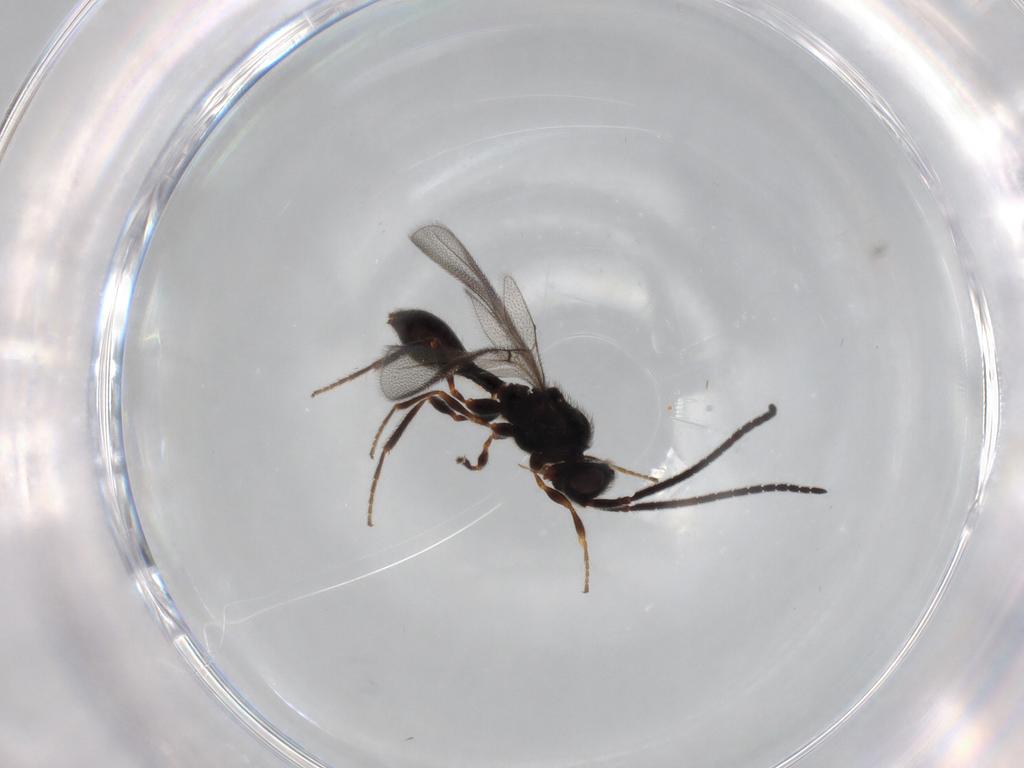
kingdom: Animalia
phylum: Arthropoda
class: Insecta
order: Hymenoptera
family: Diapriidae
